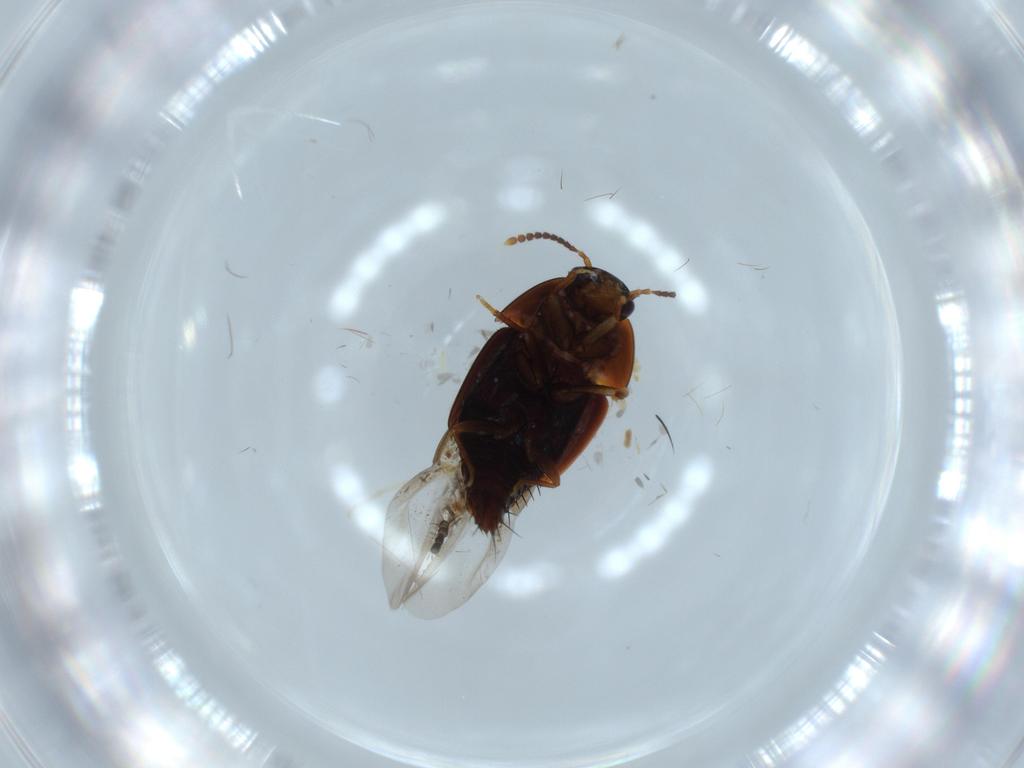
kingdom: Animalia
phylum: Arthropoda
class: Insecta
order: Coleoptera
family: Staphylinidae
